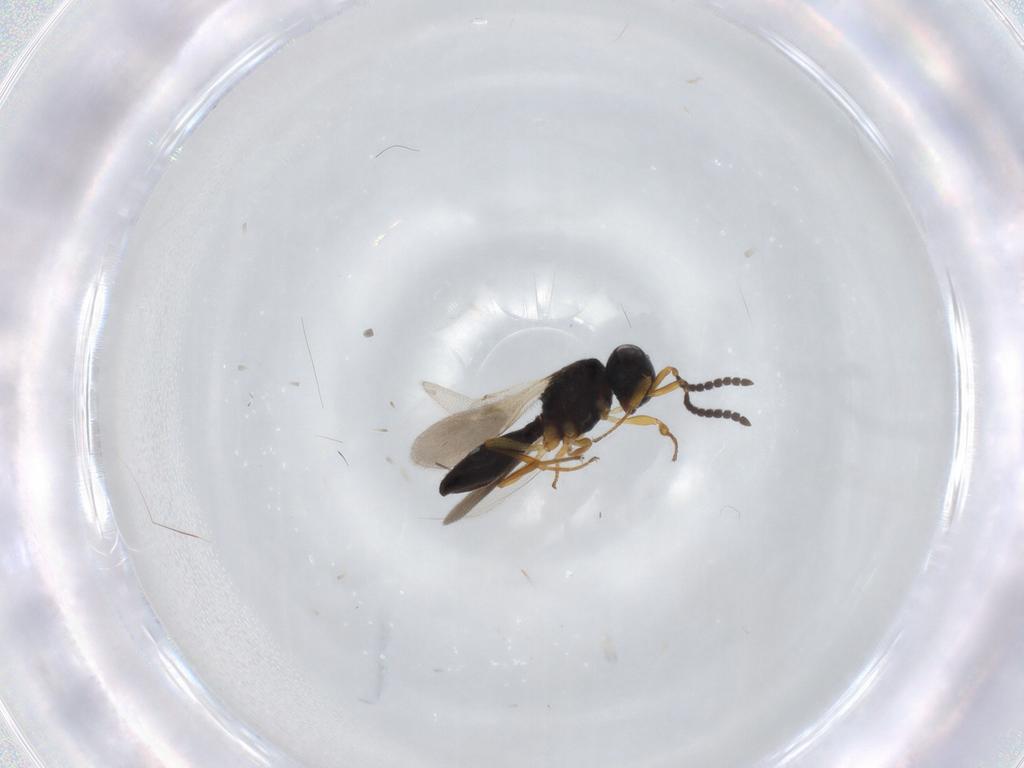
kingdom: Animalia
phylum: Arthropoda
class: Insecta
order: Hymenoptera
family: Scelionidae
